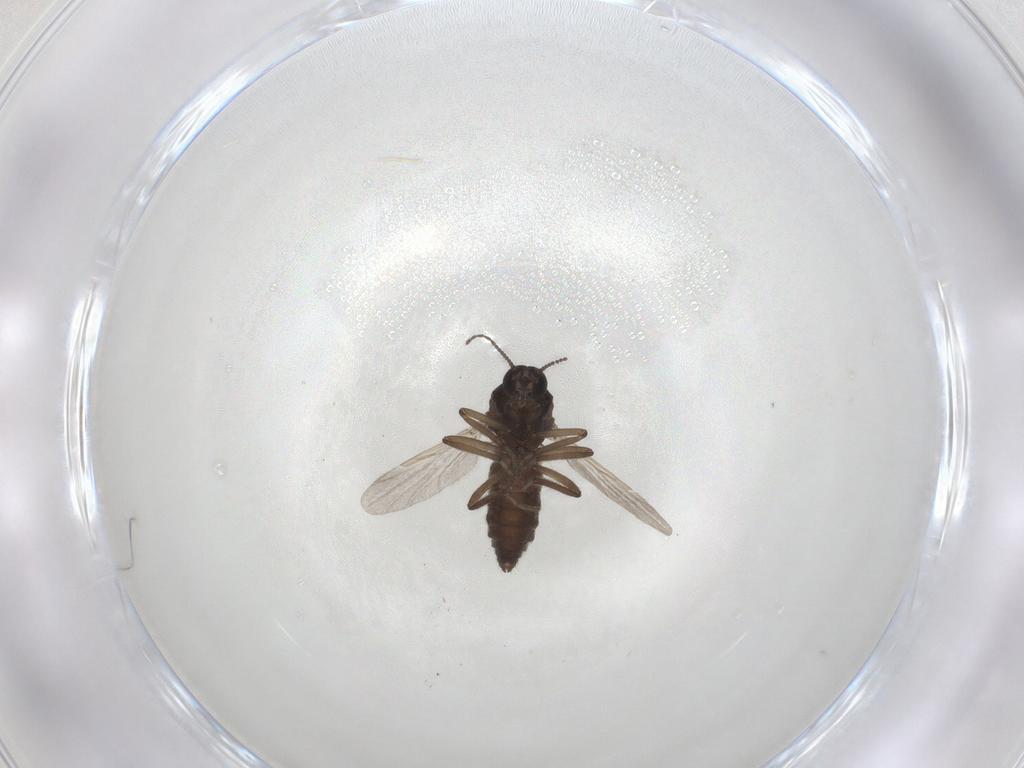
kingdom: Animalia
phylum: Arthropoda
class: Insecta
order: Diptera
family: Ceratopogonidae
